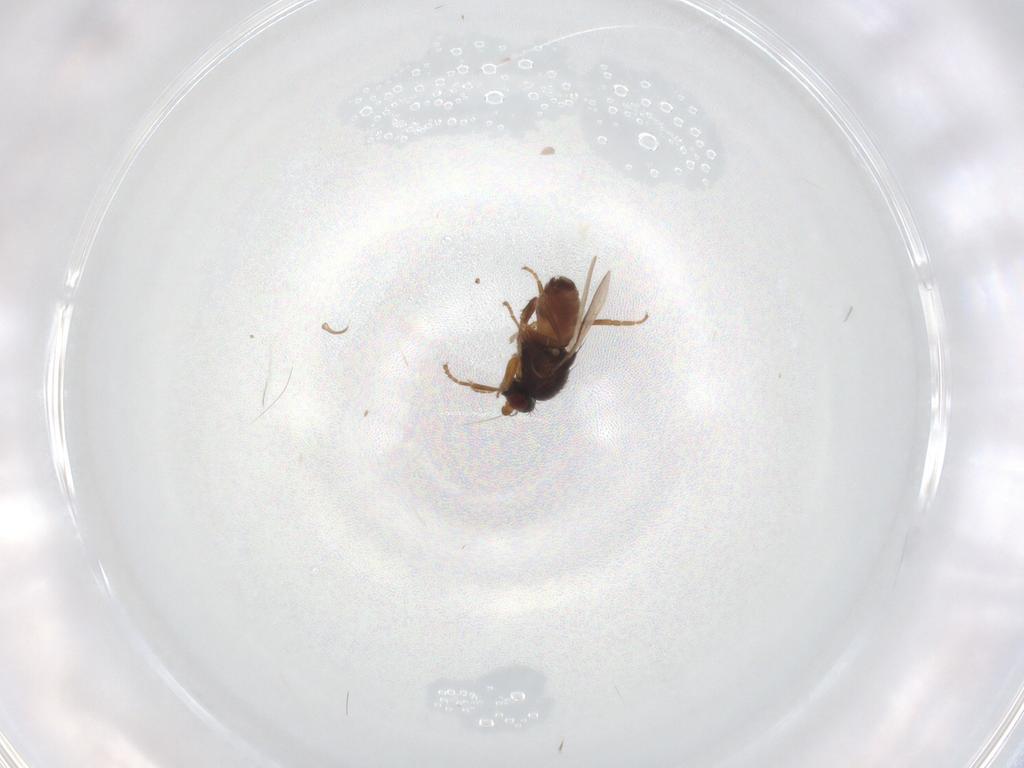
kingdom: Animalia
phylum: Arthropoda
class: Insecta
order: Diptera
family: Sphaeroceridae
